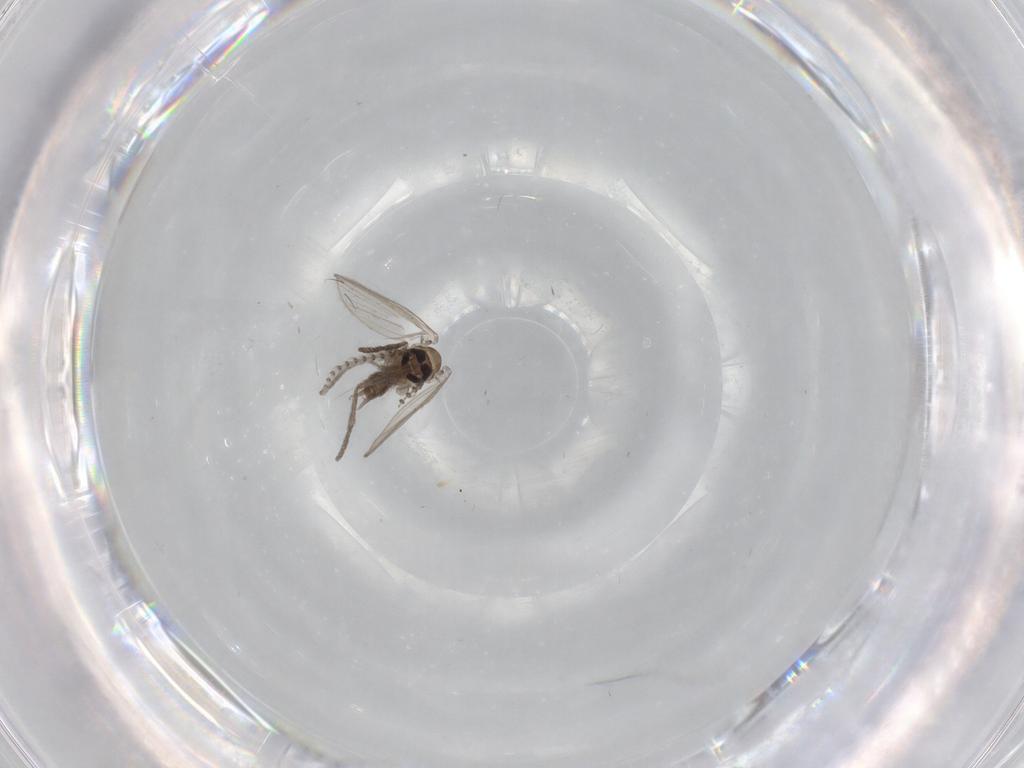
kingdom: Animalia
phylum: Arthropoda
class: Insecta
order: Diptera
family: Psychodidae
